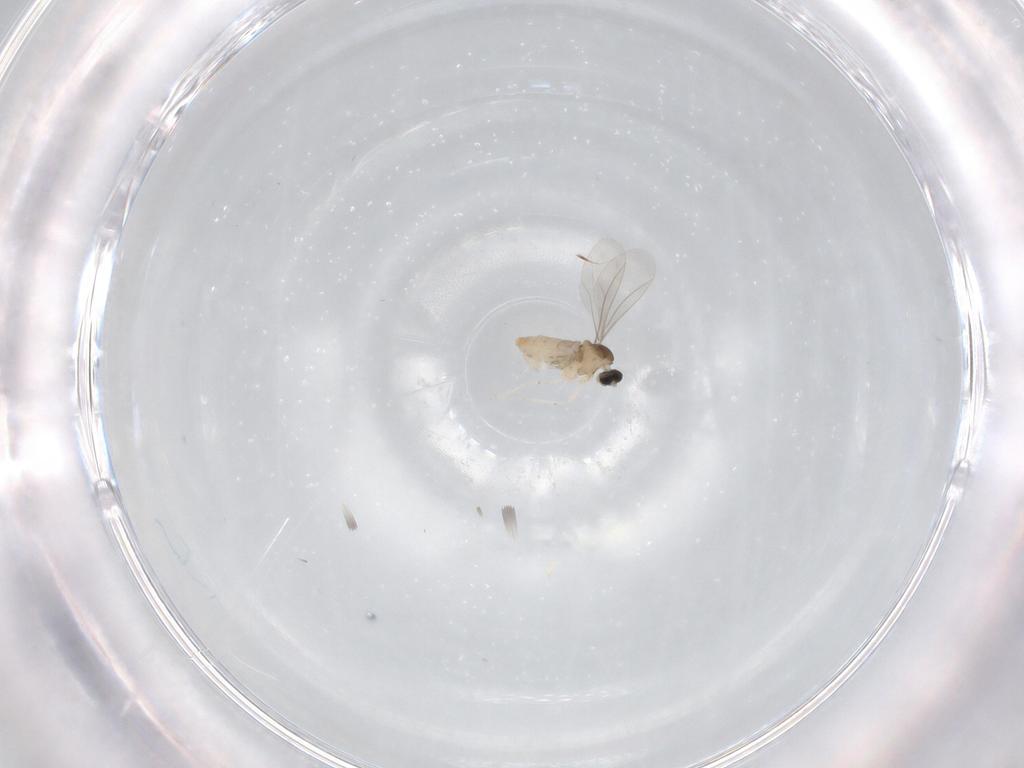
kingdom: Animalia
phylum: Arthropoda
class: Insecta
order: Diptera
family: Cecidomyiidae
